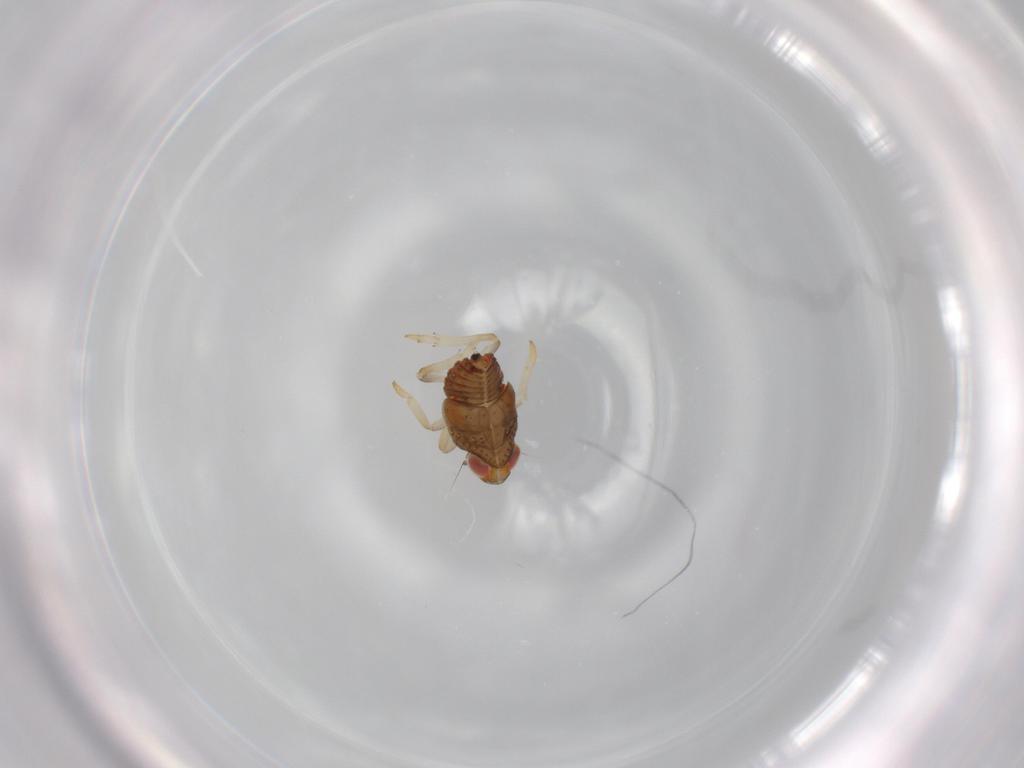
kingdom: Animalia
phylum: Arthropoda
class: Insecta
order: Hemiptera
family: Issidae
